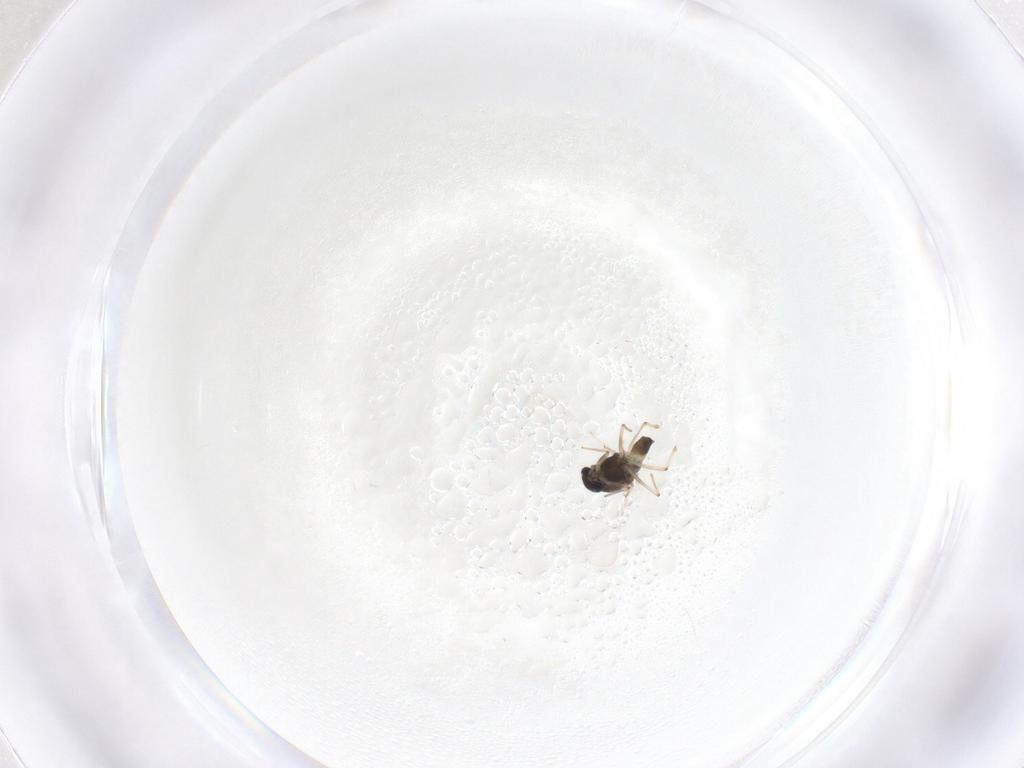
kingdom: Animalia
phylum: Arthropoda
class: Insecta
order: Diptera
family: Chironomidae
